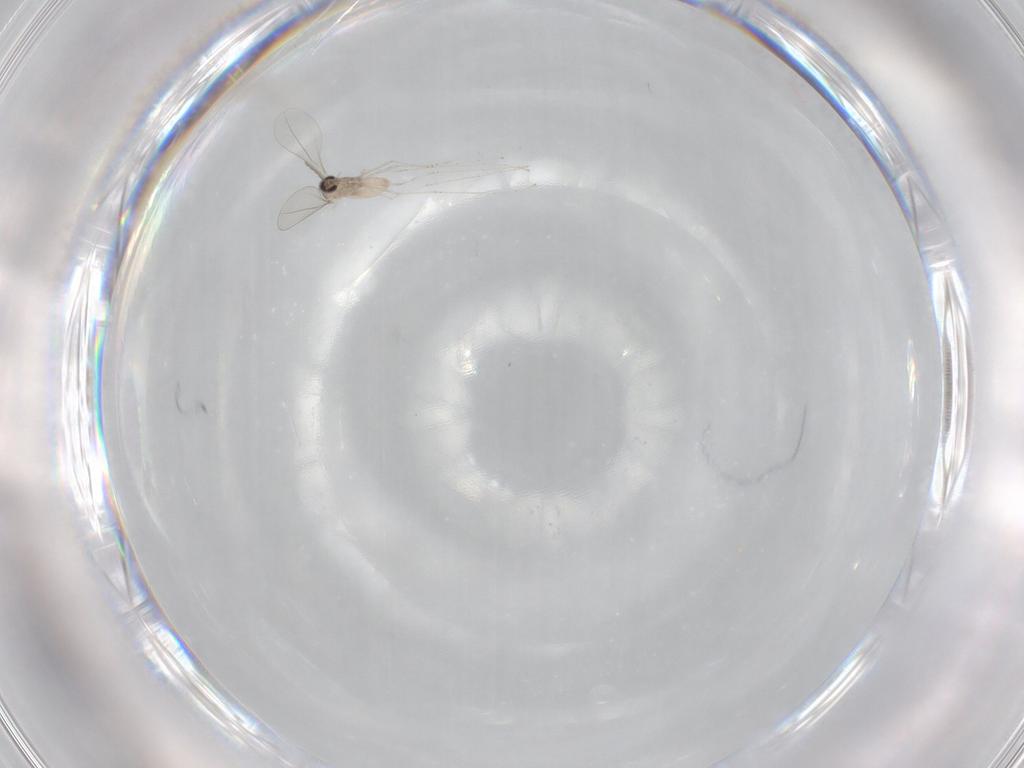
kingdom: Animalia
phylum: Arthropoda
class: Insecta
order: Diptera
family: Cecidomyiidae
